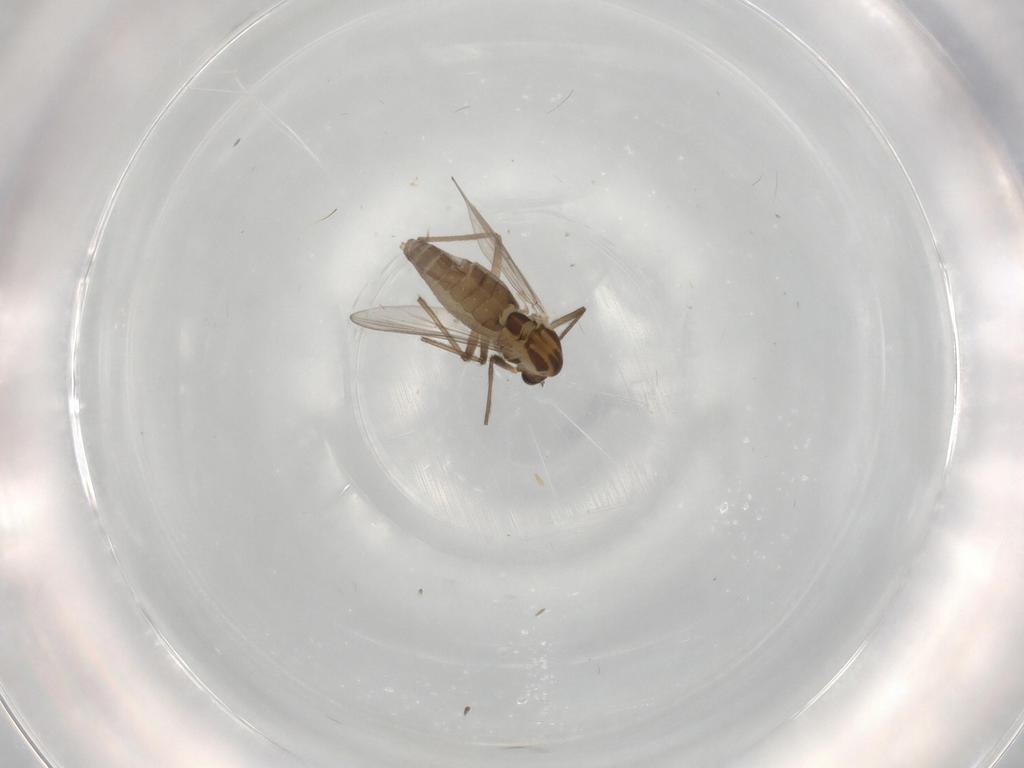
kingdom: Animalia
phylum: Arthropoda
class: Insecta
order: Diptera
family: Chironomidae
